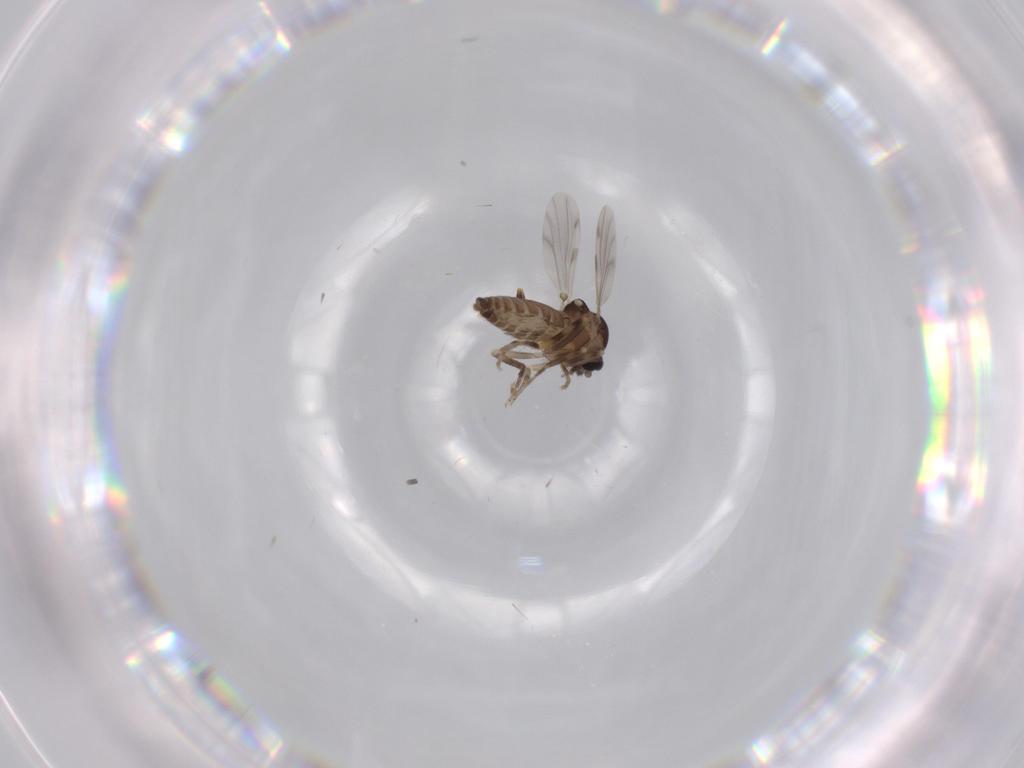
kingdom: Animalia
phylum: Arthropoda
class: Insecta
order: Diptera
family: Ceratopogonidae
